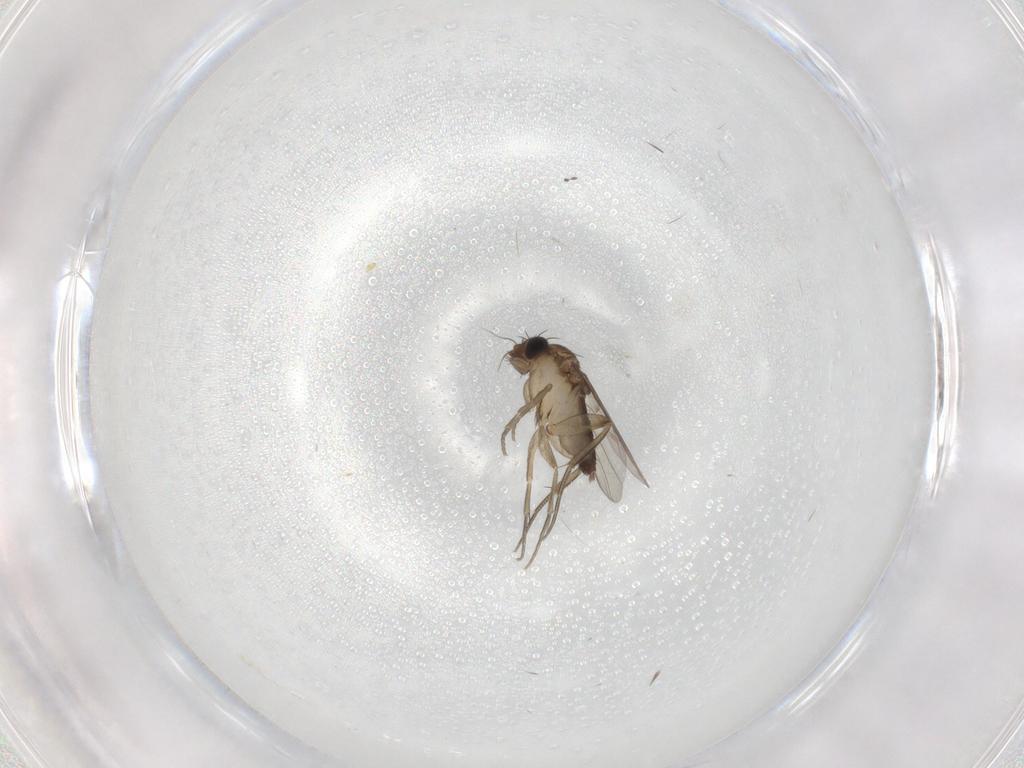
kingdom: Animalia
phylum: Arthropoda
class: Insecta
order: Diptera
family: Phoridae
